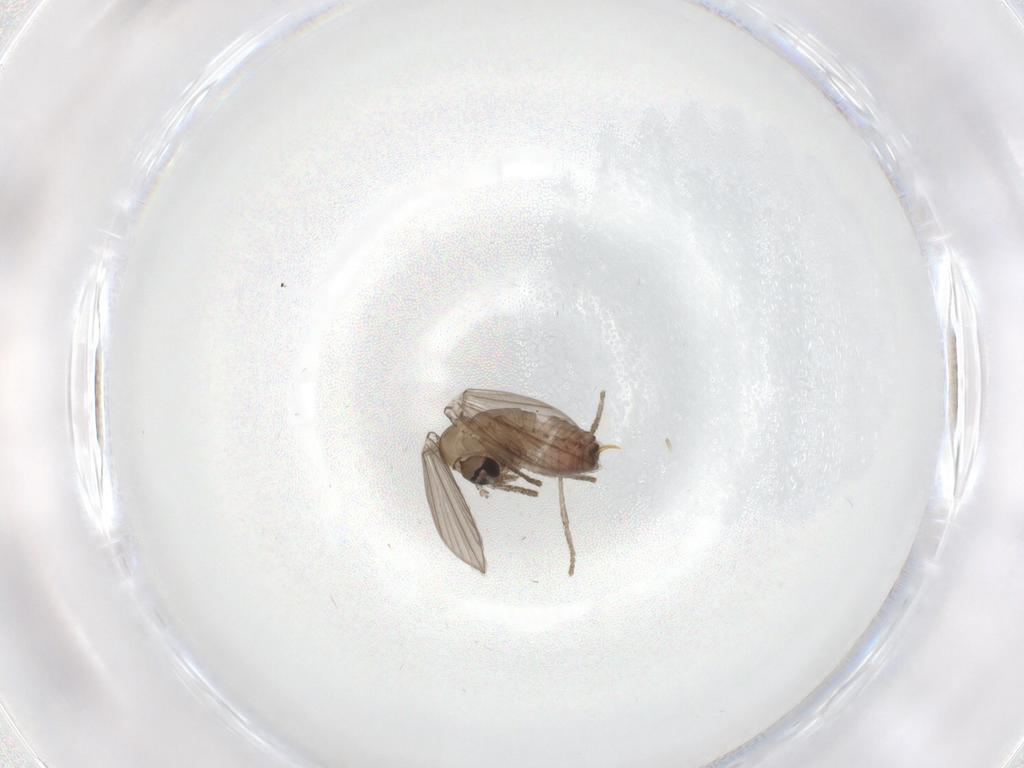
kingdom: Animalia
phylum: Arthropoda
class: Insecta
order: Diptera
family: Psychodidae
